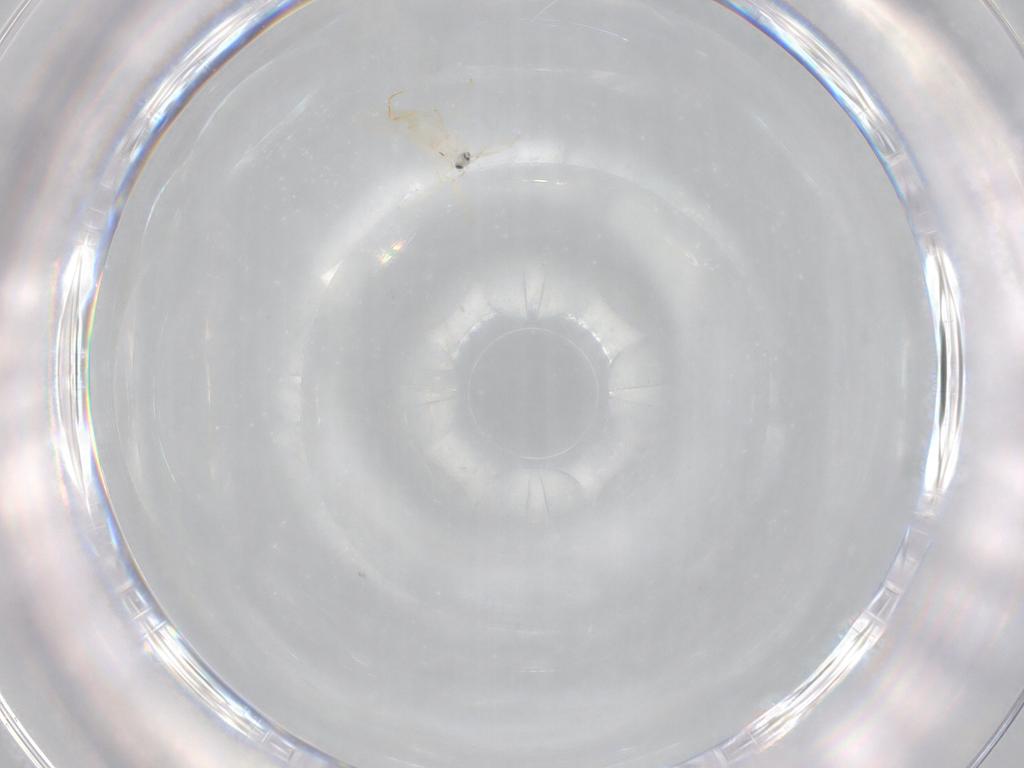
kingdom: Animalia
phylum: Arthropoda
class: Insecta
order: Diptera
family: Cecidomyiidae
